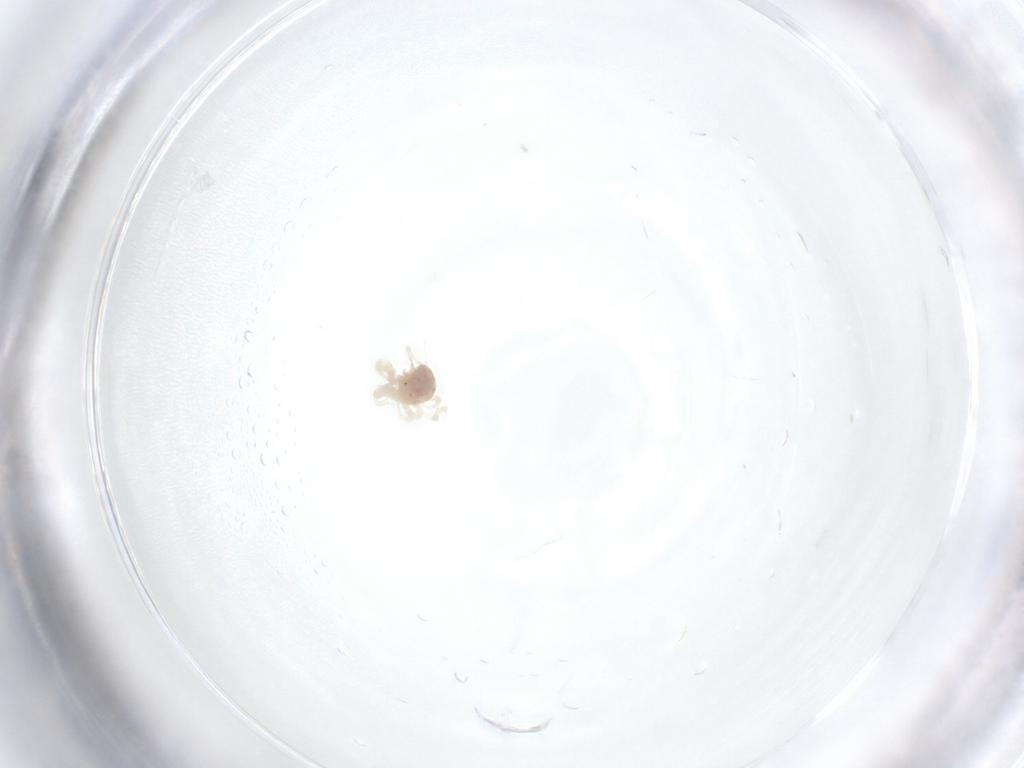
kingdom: Animalia
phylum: Arthropoda
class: Arachnida
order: Trombidiformes
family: Anystidae
